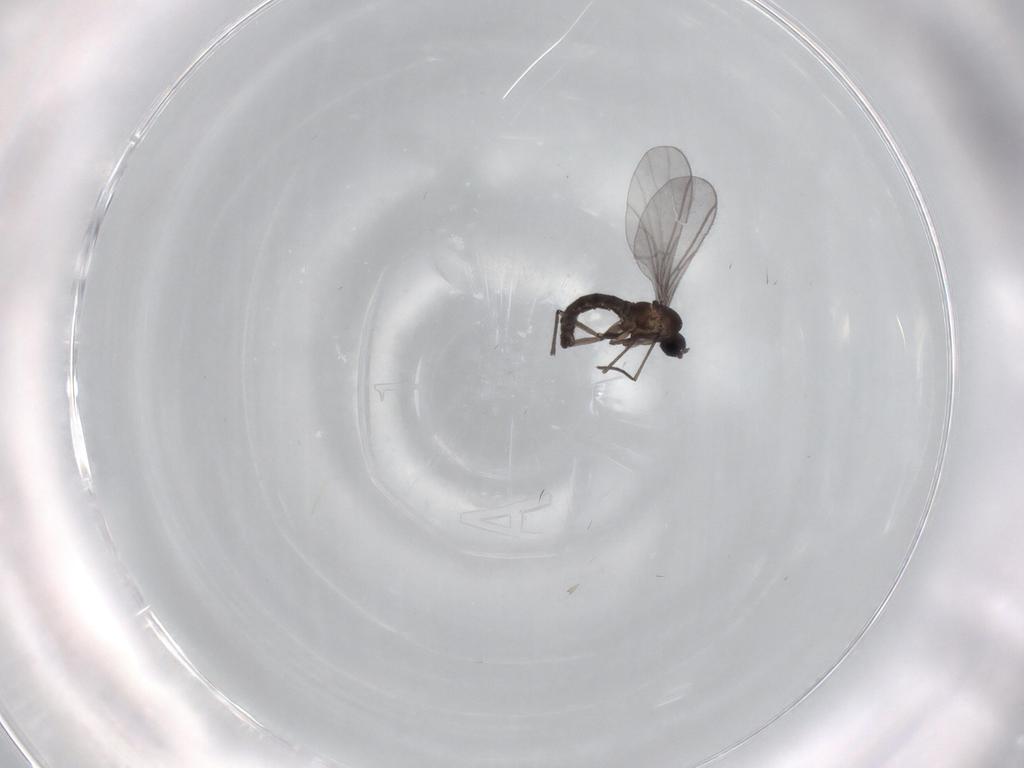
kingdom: Animalia
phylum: Arthropoda
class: Insecta
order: Diptera
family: Sciaridae
